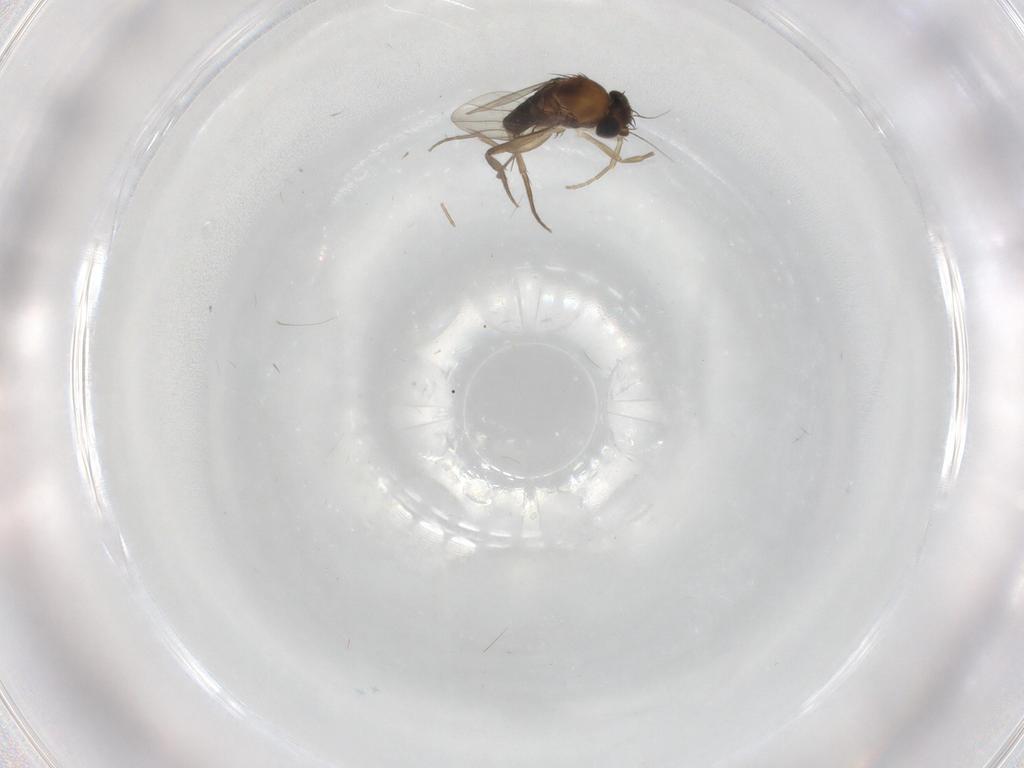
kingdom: Animalia
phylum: Arthropoda
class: Insecta
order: Diptera
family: Phoridae
